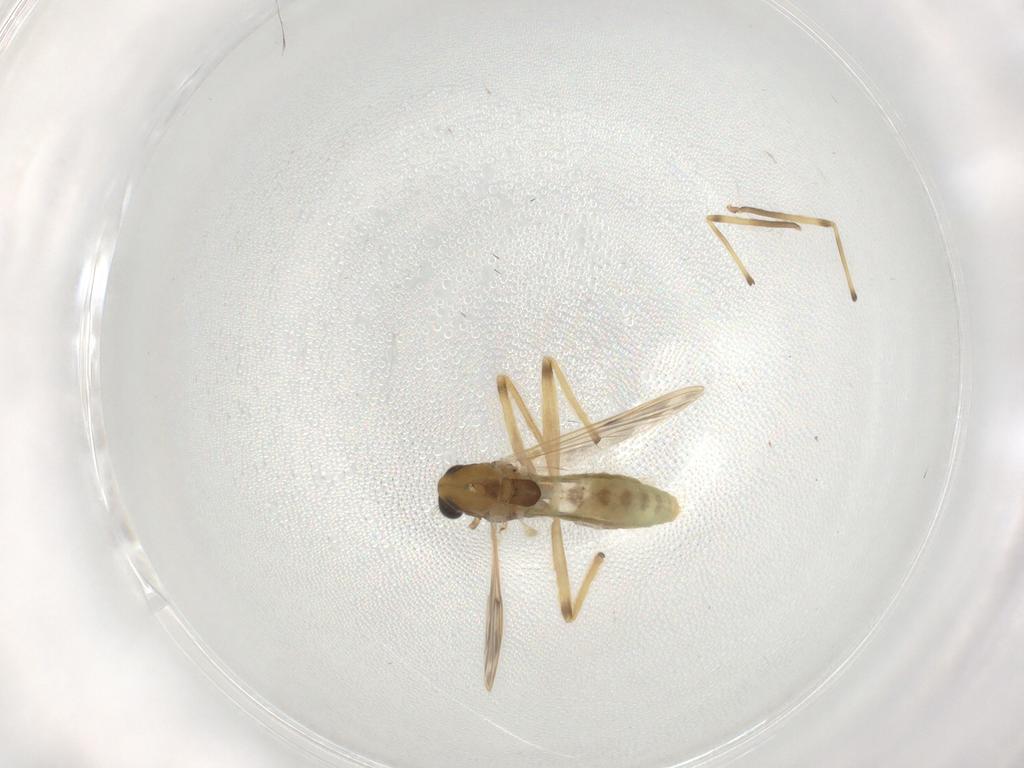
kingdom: Animalia
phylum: Arthropoda
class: Insecta
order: Diptera
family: Chironomidae
